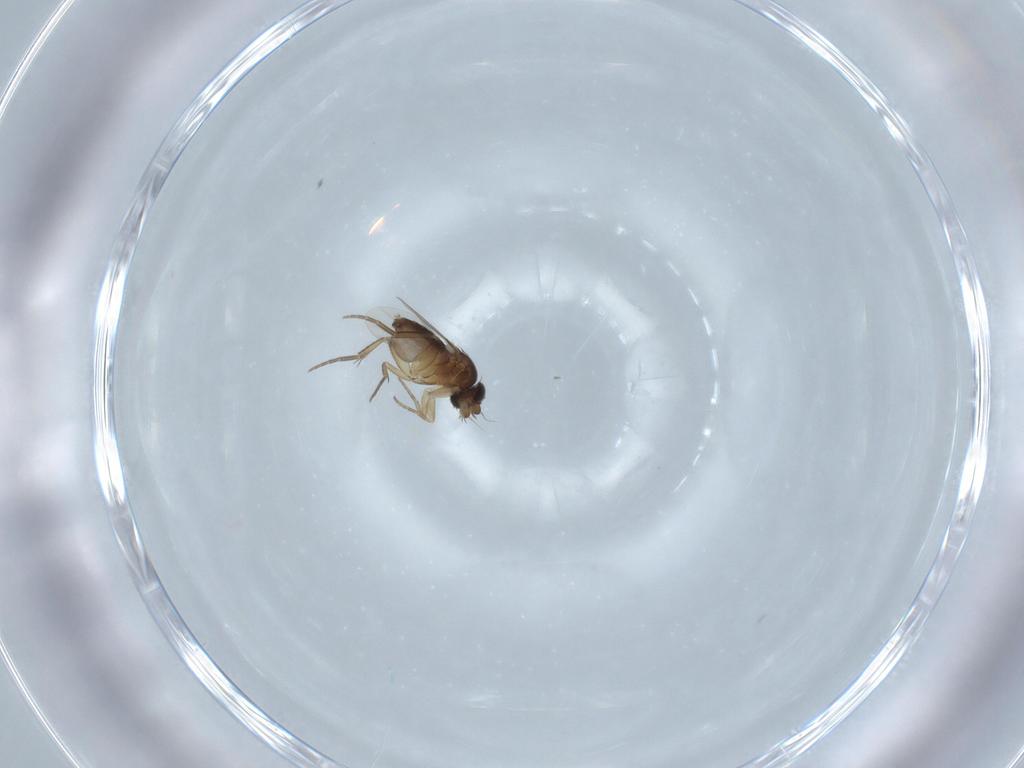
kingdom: Animalia
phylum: Arthropoda
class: Insecta
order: Diptera
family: Phoridae
